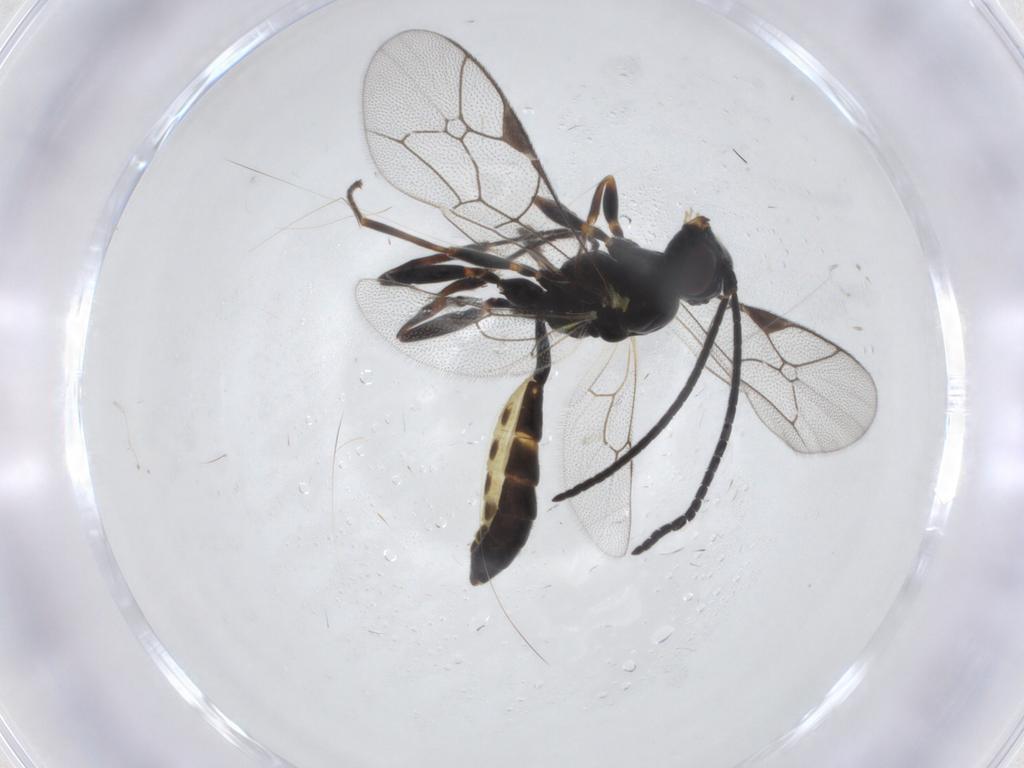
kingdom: Animalia
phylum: Arthropoda
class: Insecta
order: Hymenoptera
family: Ichneumonidae
